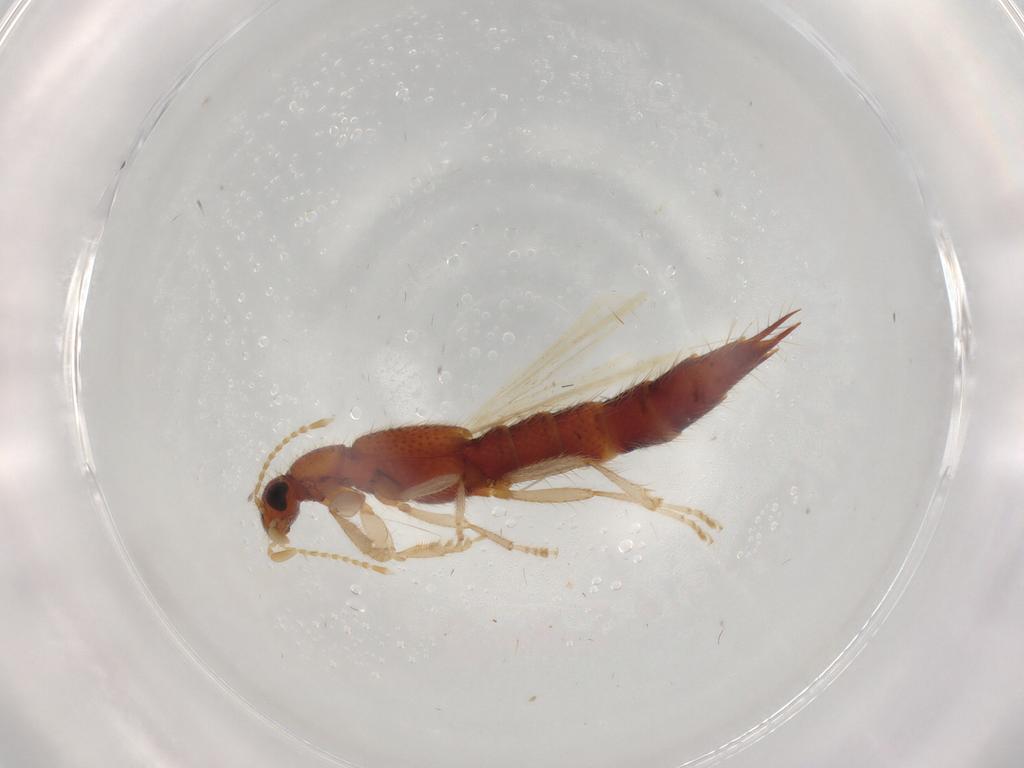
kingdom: Animalia
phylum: Arthropoda
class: Insecta
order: Coleoptera
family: Staphylinidae
